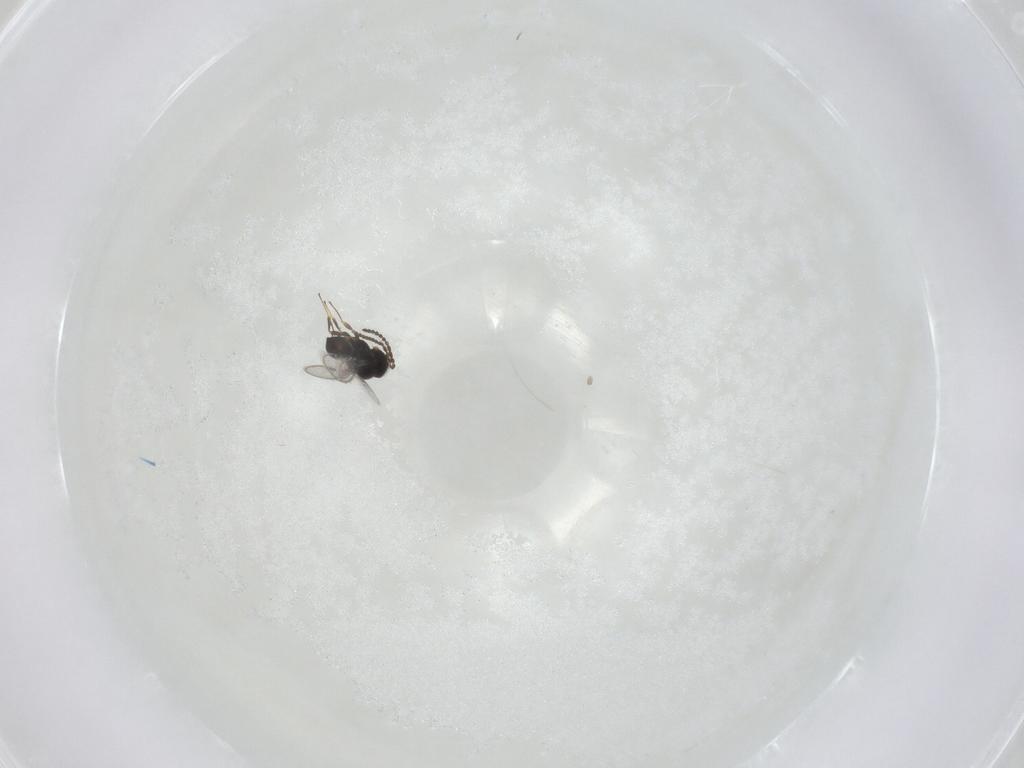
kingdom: Animalia
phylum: Arthropoda
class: Insecta
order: Hymenoptera
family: Scelionidae
